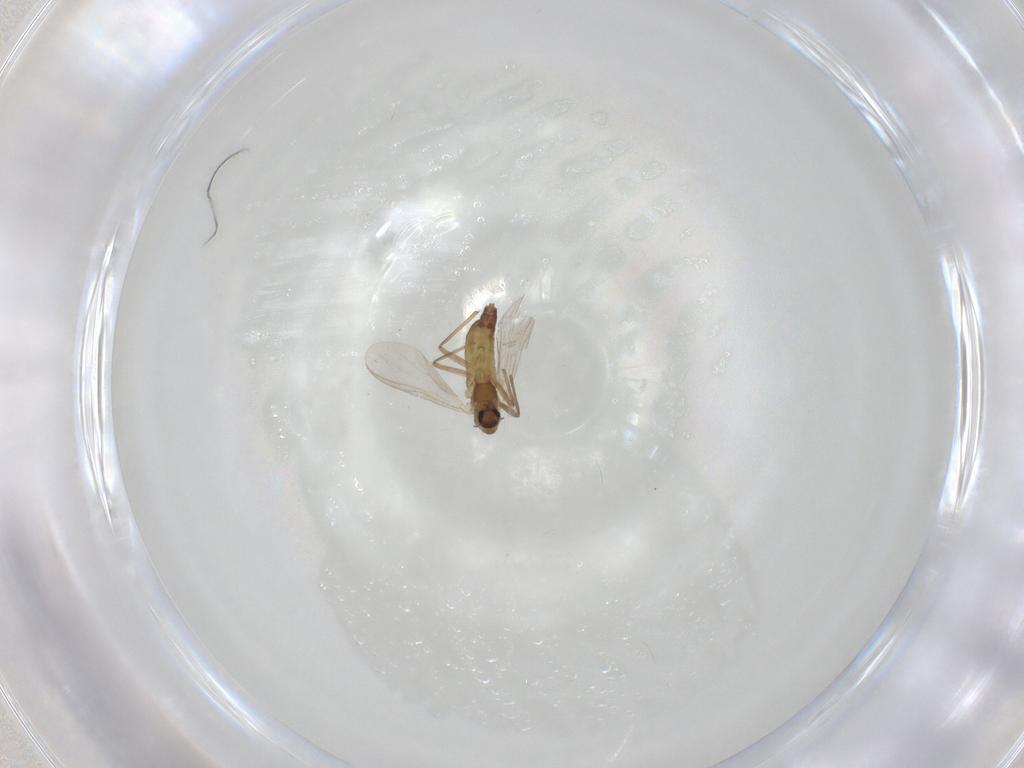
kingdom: Animalia
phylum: Arthropoda
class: Insecta
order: Diptera
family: Chironomidae
